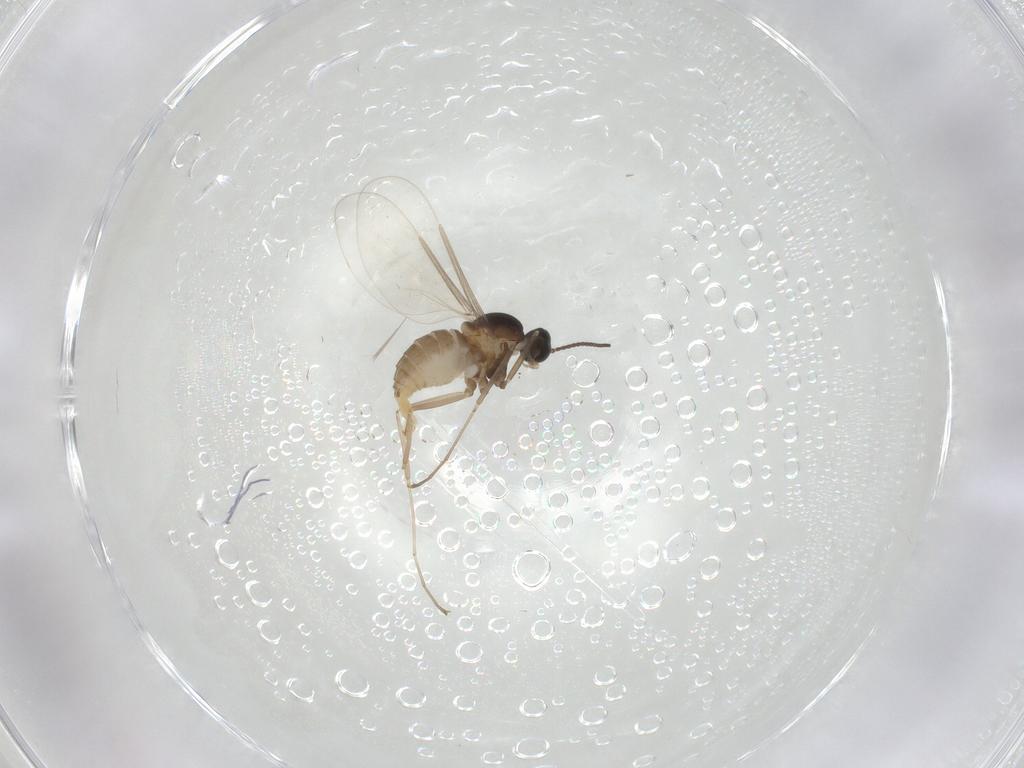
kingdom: Animalia
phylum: Arthropoda
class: Insecta
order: Diptera
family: Cecidomyiidae
